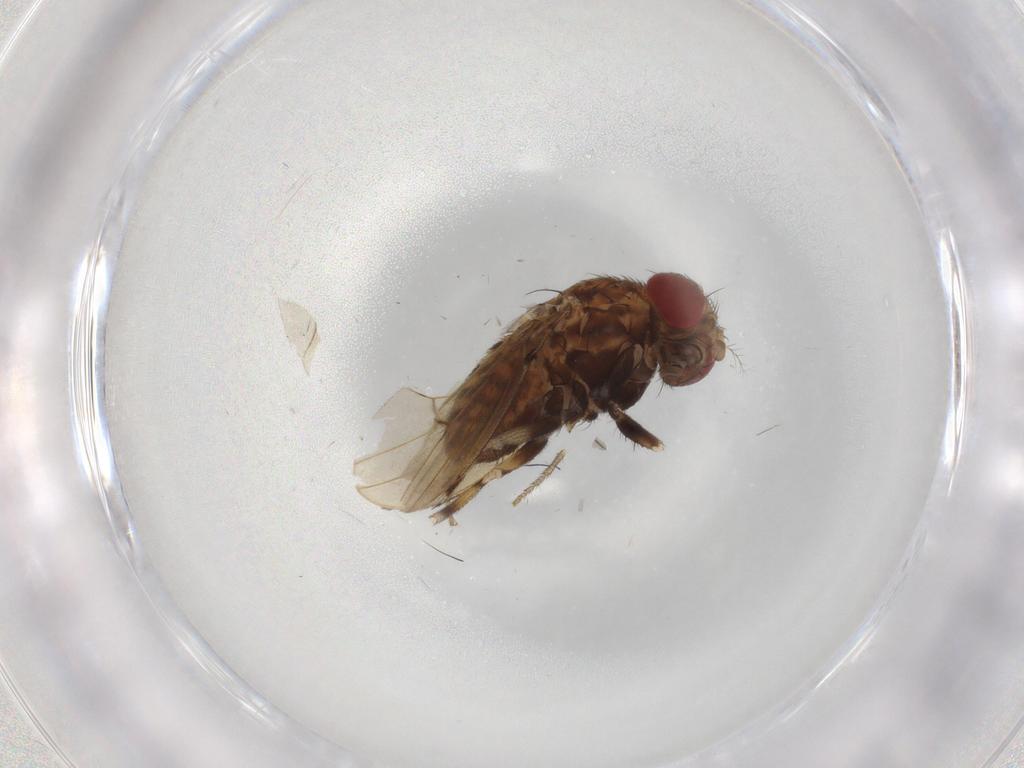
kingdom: Animalia
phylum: Arthropoda
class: Insecta
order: Diptera
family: Drosophilidae
